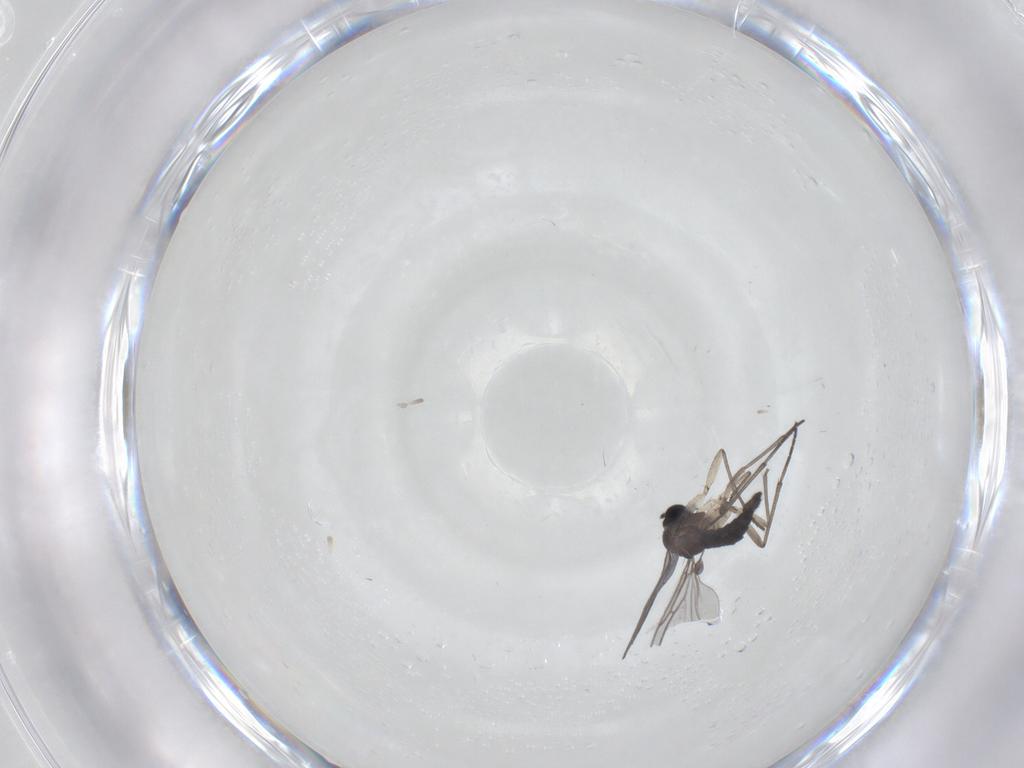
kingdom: Animalia
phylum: Arthropoda
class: Insecta
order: Diptera
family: Sciaridae
